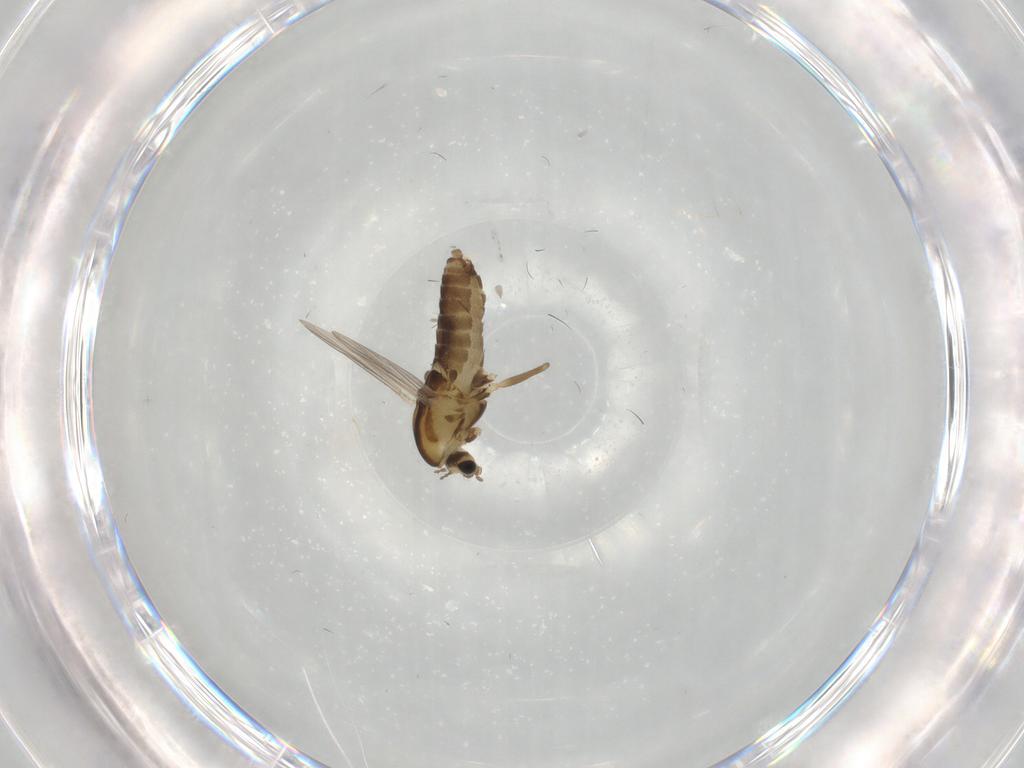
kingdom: Animalia
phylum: Arthropoda
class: Insecta
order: Diptera
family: Chironomidae
